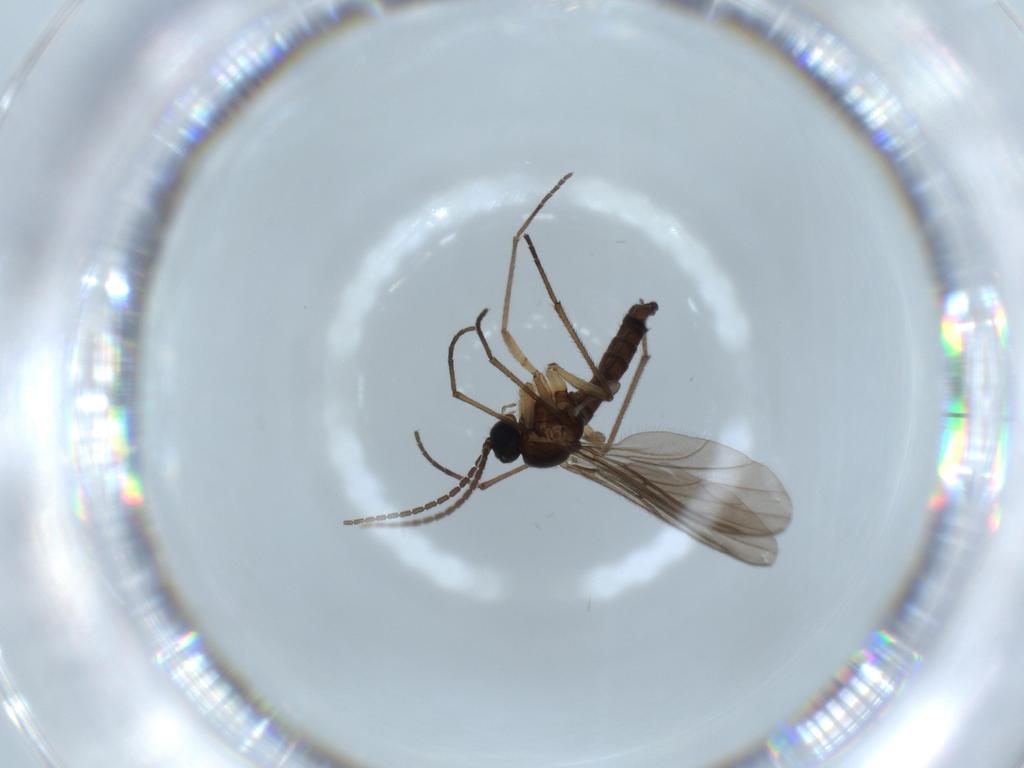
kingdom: Animalia
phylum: Arthropoda
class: Insecta
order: Diptera
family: Sciaridae
